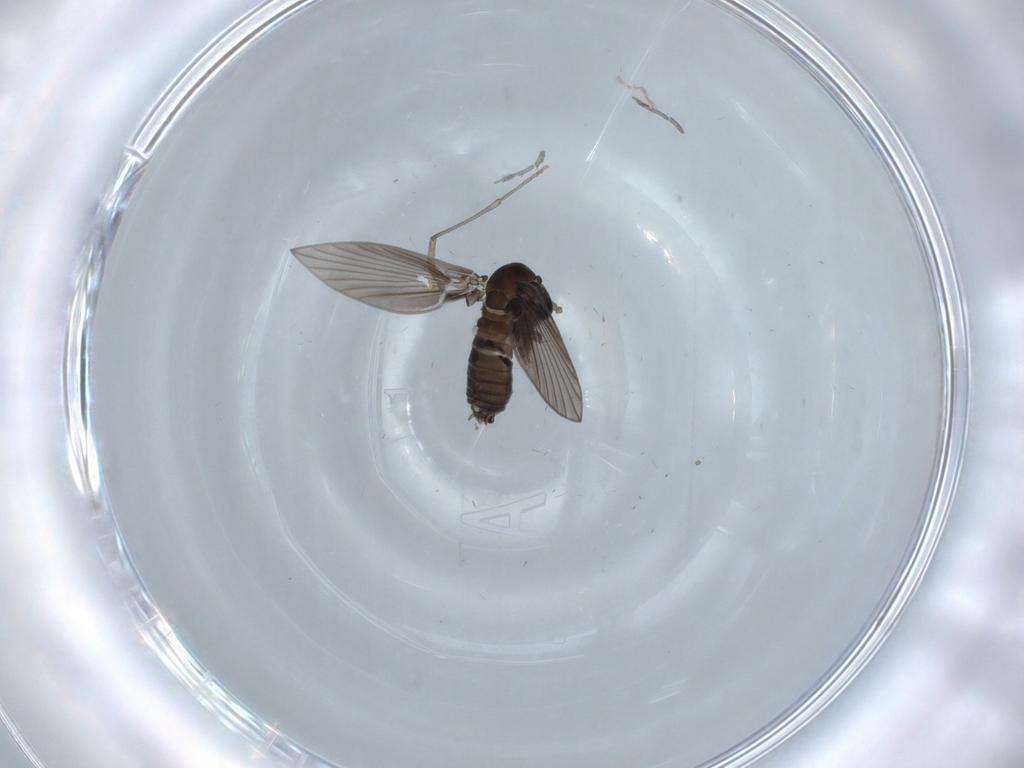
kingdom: Animalia
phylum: Arthropoda
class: Insecta
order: Diptera
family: Psychodidae
